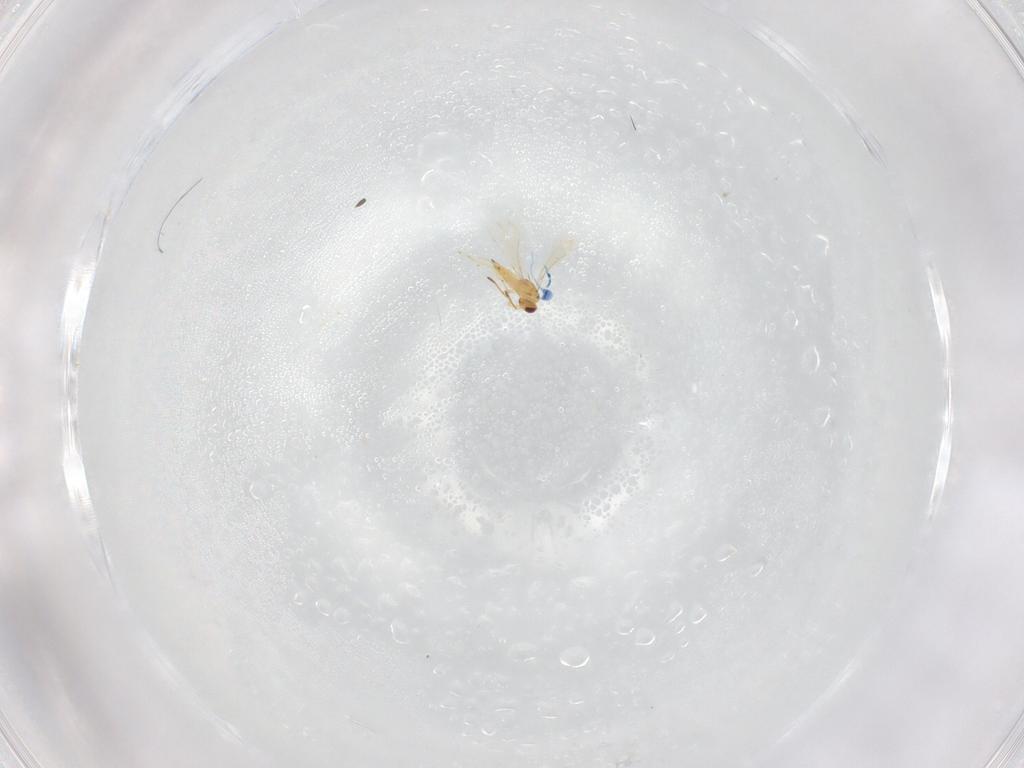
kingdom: Animalia
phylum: Arthropoda
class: Insecta
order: Hymenoptera
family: Mymaridae
